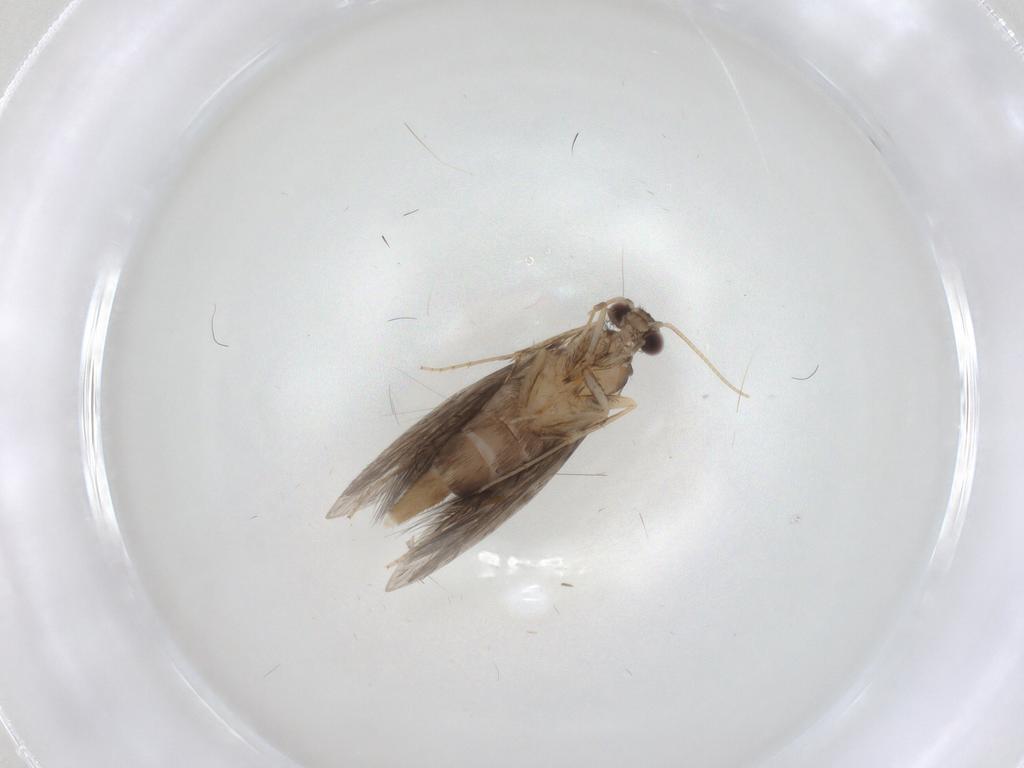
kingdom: Animalia
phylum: Arthropoda
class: Insecta
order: Trichoptera
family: Hydroptilidae
